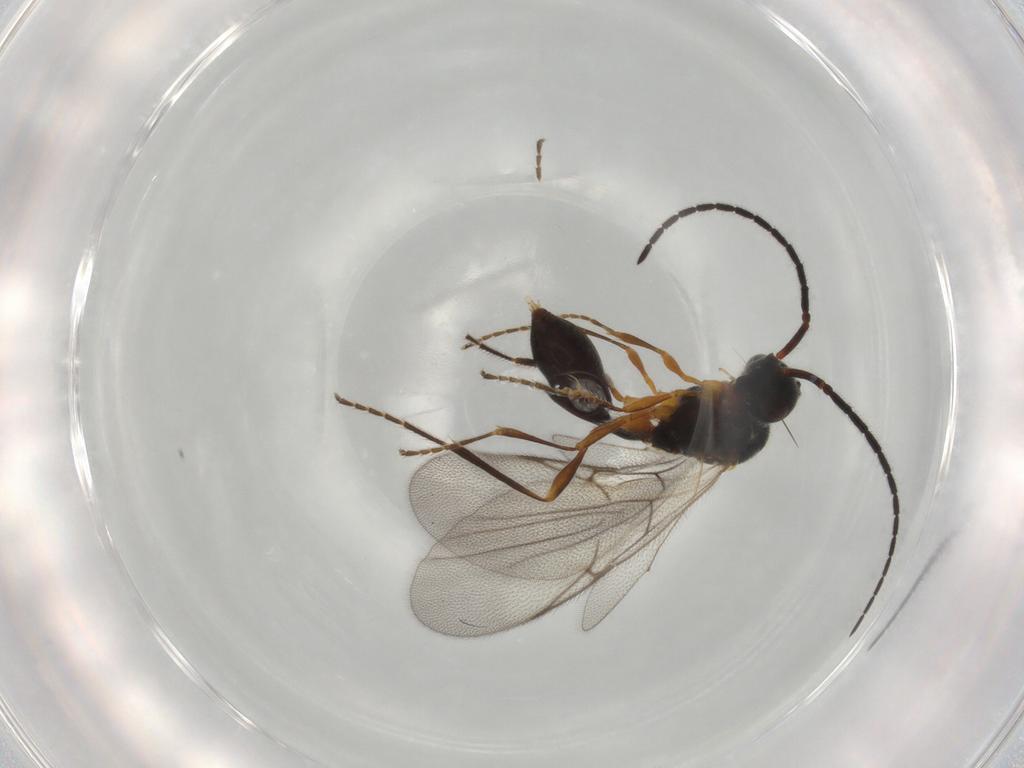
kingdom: Animalia
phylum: Arthropoda
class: Insecta
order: Hymenoptera
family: Diapriidae
